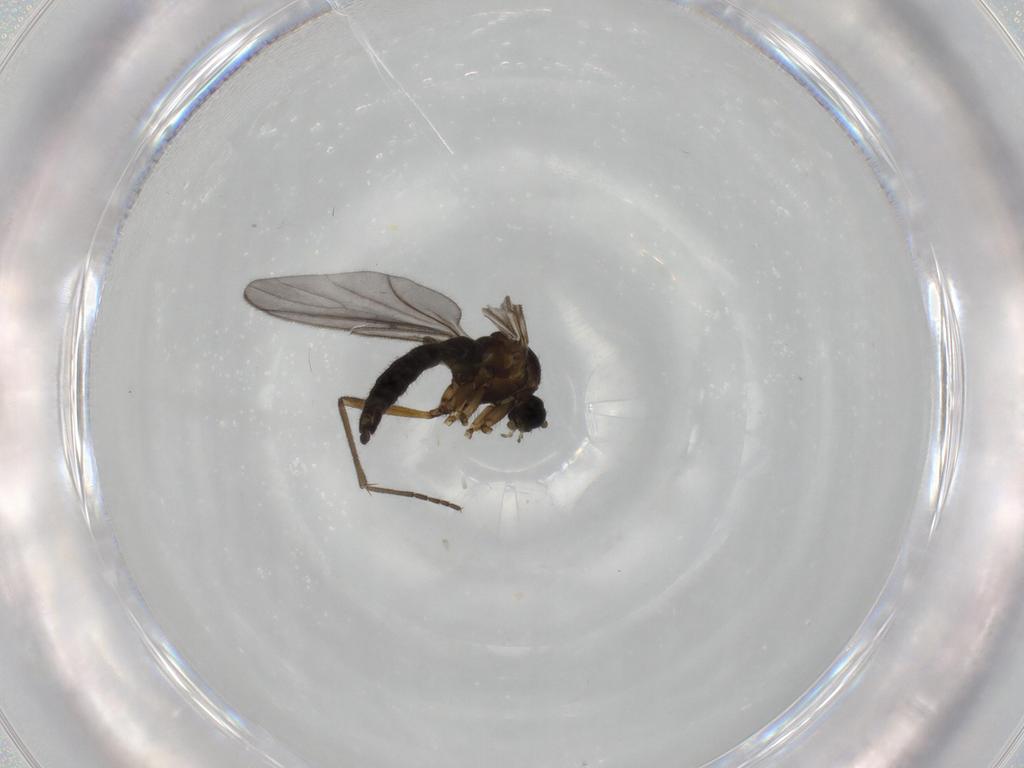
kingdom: Animalia
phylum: Arthropoda
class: Insecta
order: Diptera
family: Sciaridae
